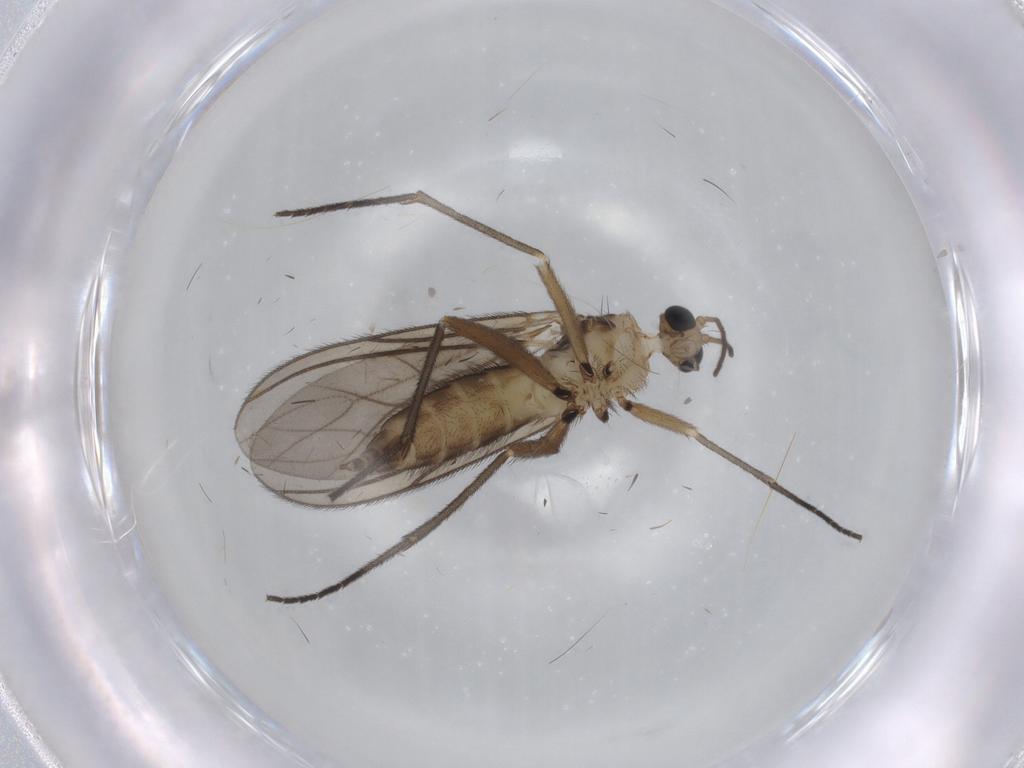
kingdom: Animalia
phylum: Arthropoda
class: Insecta
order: Diptera
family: Sciaridae
